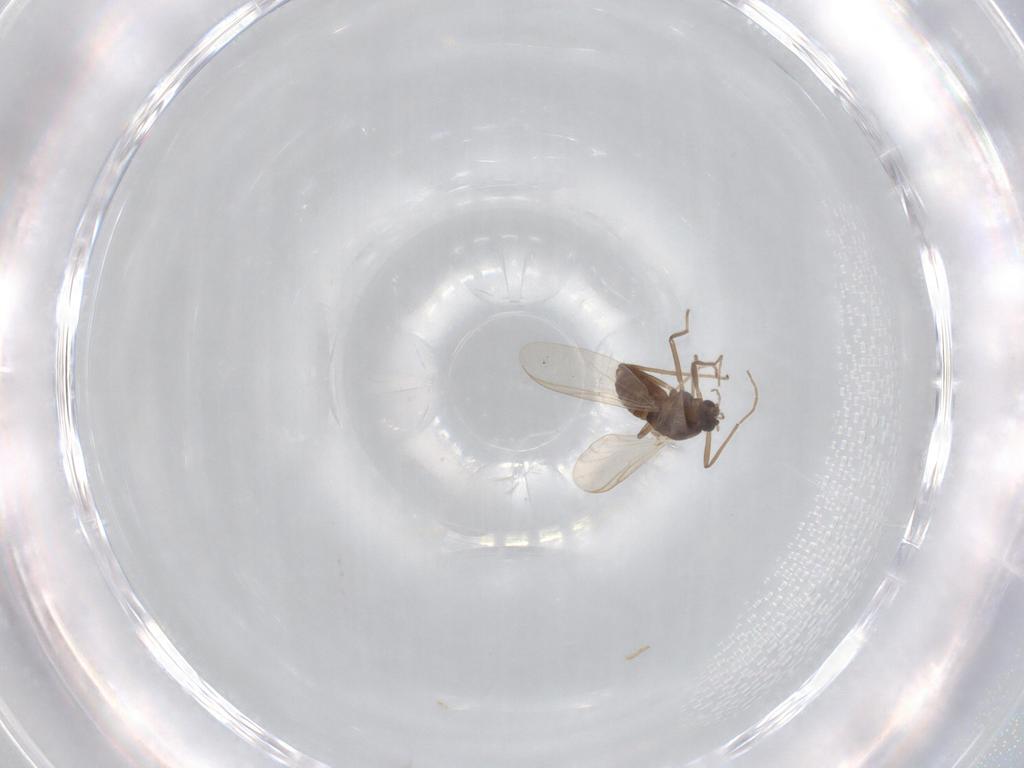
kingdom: Animalia
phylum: Arthropoda
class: Insecta
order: Diptera
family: Chironomidae
